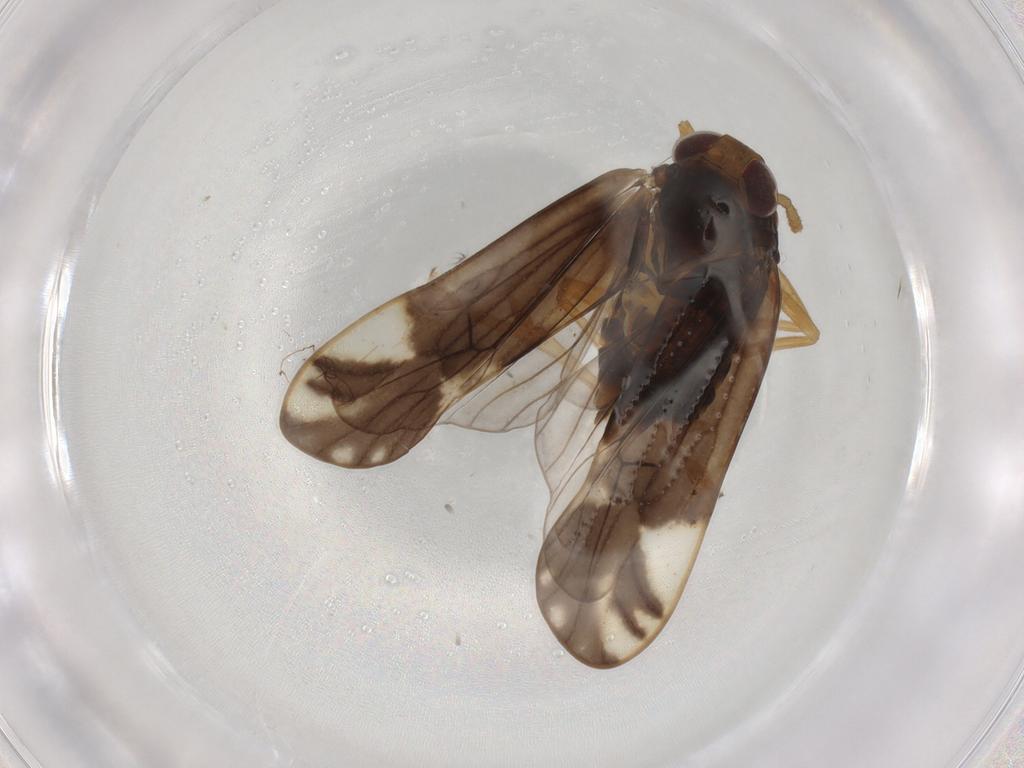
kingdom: Animalia
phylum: Arthropoda
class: Insecta
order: Hemiptera
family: Delphacidae
